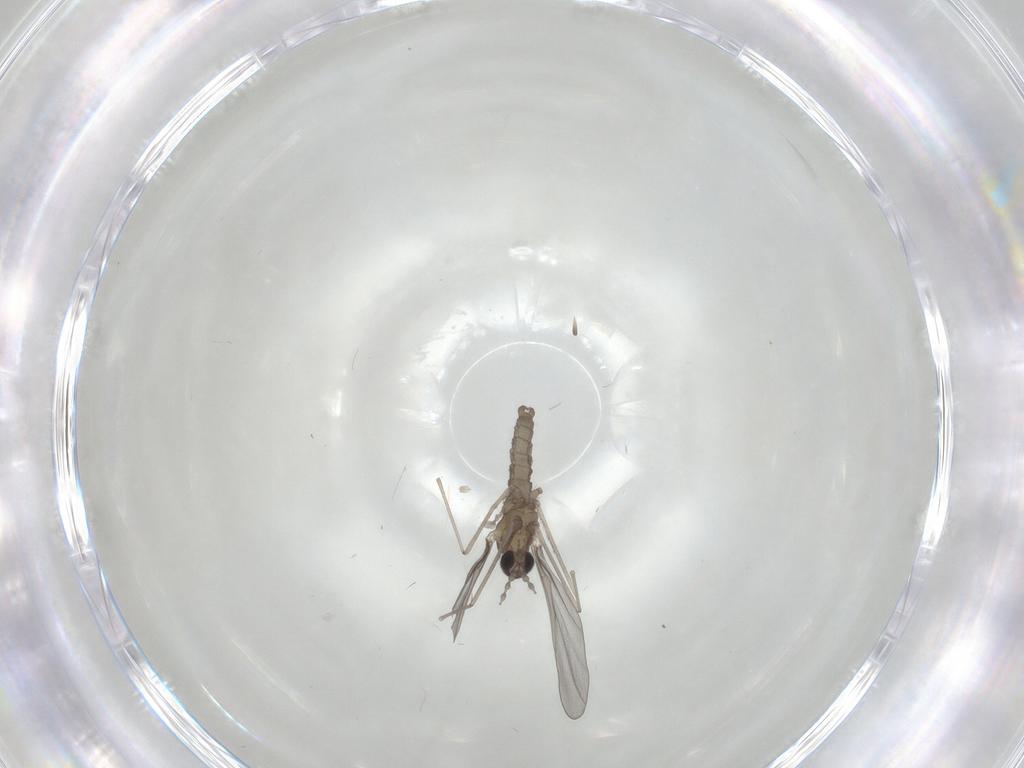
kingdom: Animalia
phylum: Arthropoda
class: Insecta
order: Diptera
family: Cecidomyiidae
